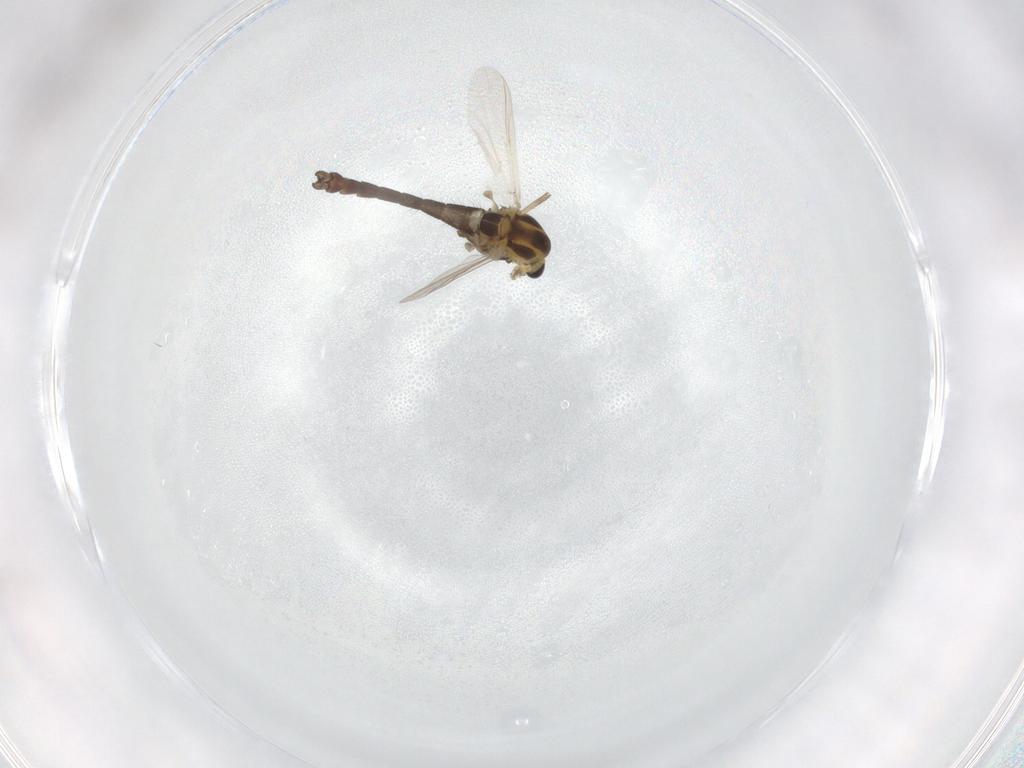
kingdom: Animalia
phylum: Arthropoda
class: Insecta
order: Diptera
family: Chironomidae
